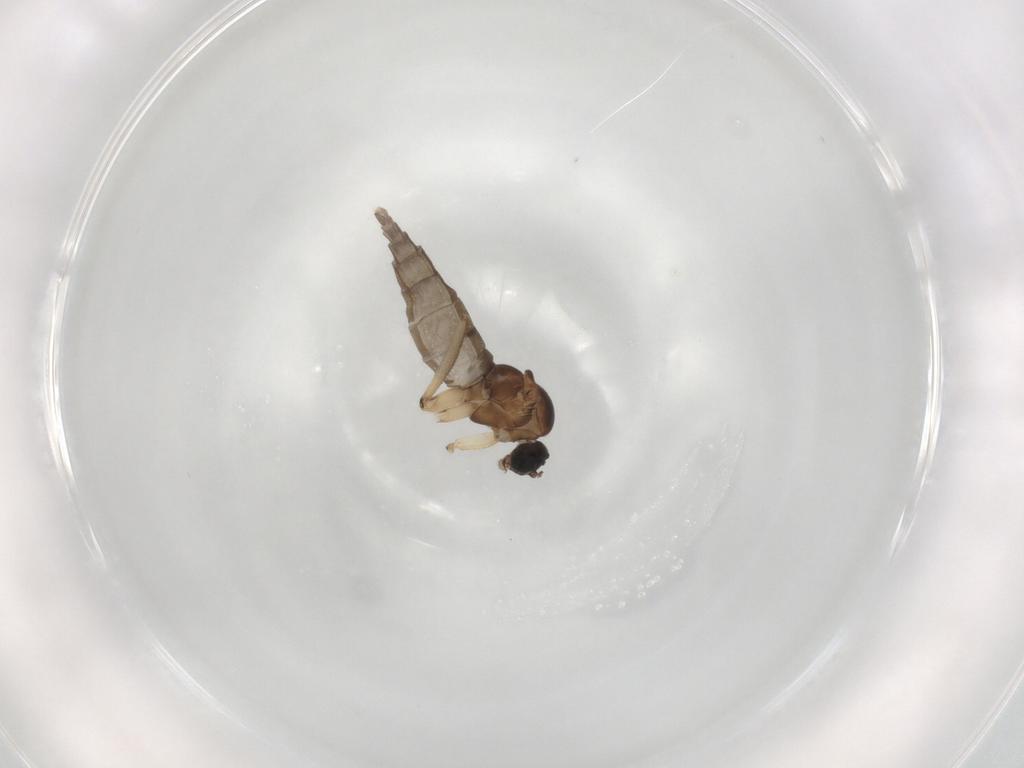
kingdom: Animalia
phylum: Arthropoda
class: Insecta
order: Diptera
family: Sciaridae
